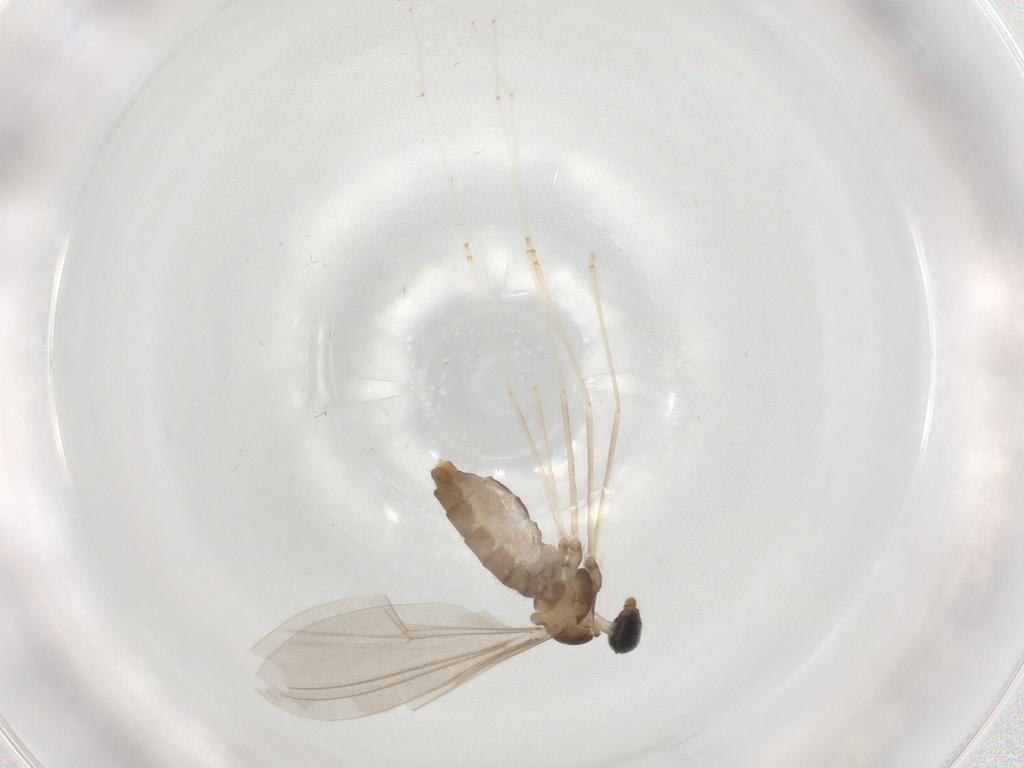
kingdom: Animalia
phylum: Arthropoda
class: Insecta
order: Diptera
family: Cecidomyiidae
